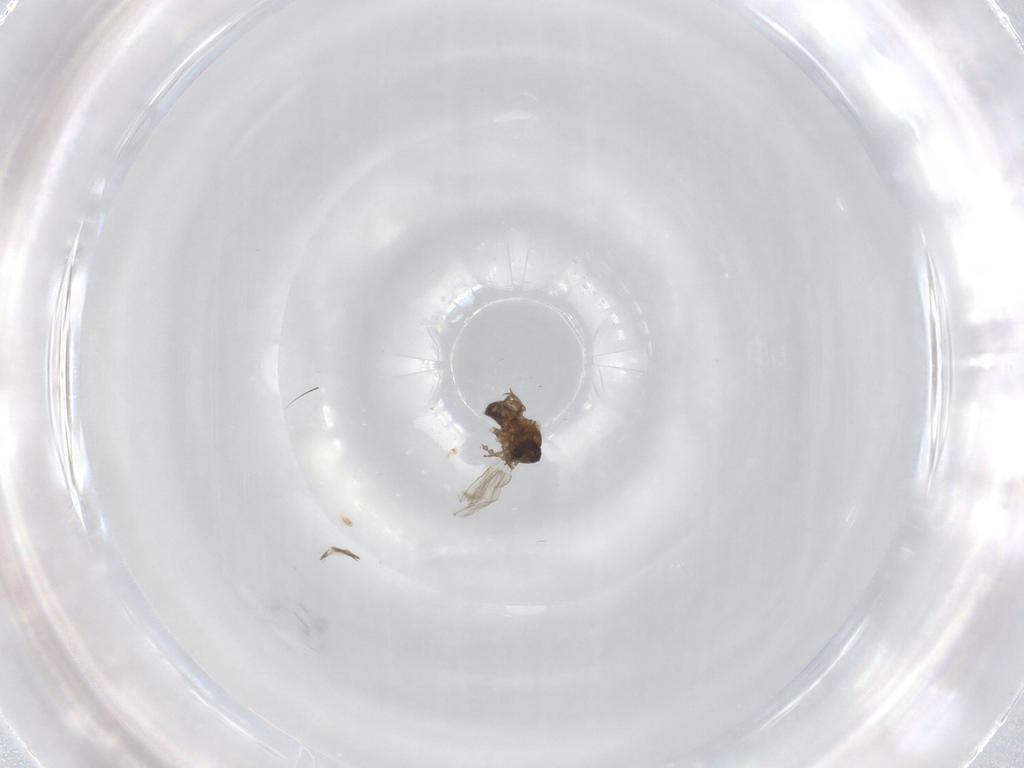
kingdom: Animalia
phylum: Arthropoda
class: Insecta
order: Diptera
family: Psychodidae
